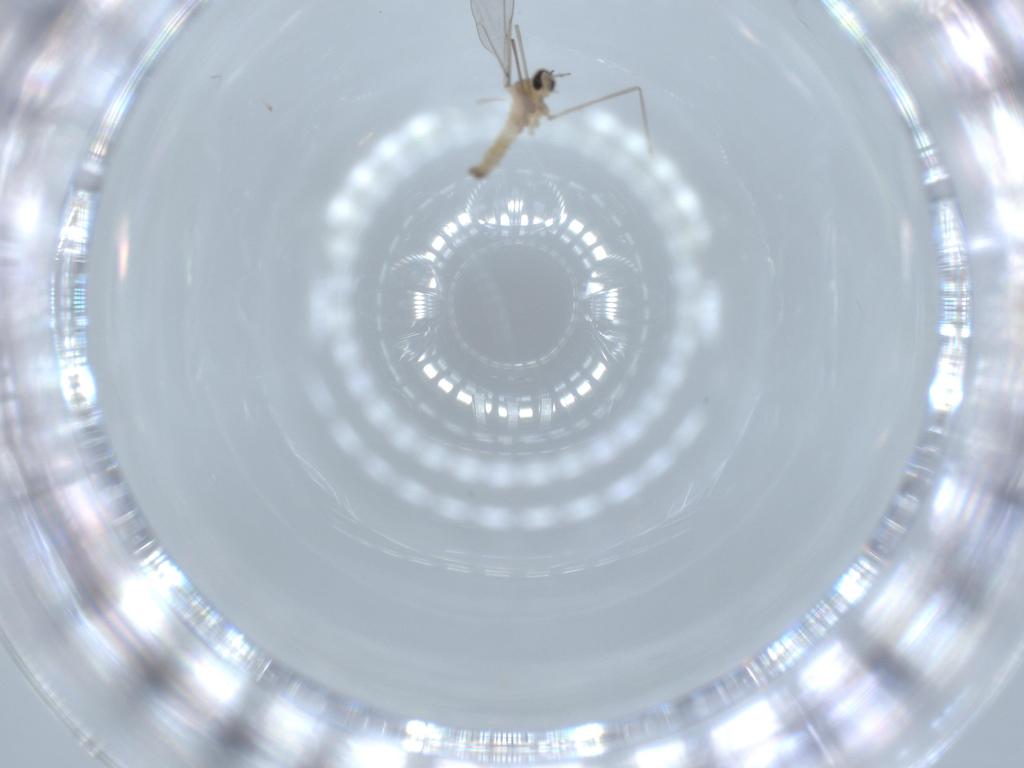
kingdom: Animalia
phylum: Arthropoda
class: Insecta
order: Diptera
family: Cecidomyiidae
